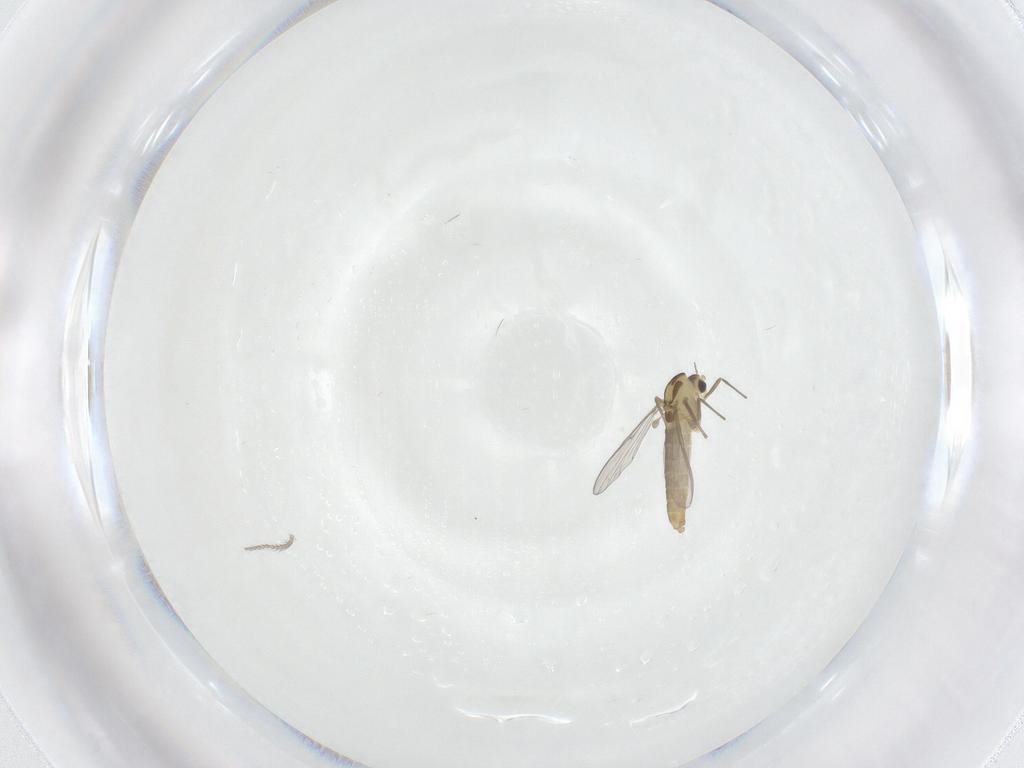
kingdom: Animalia
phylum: Arthropoda
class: Insecta
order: Diptera
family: Chironomidae
